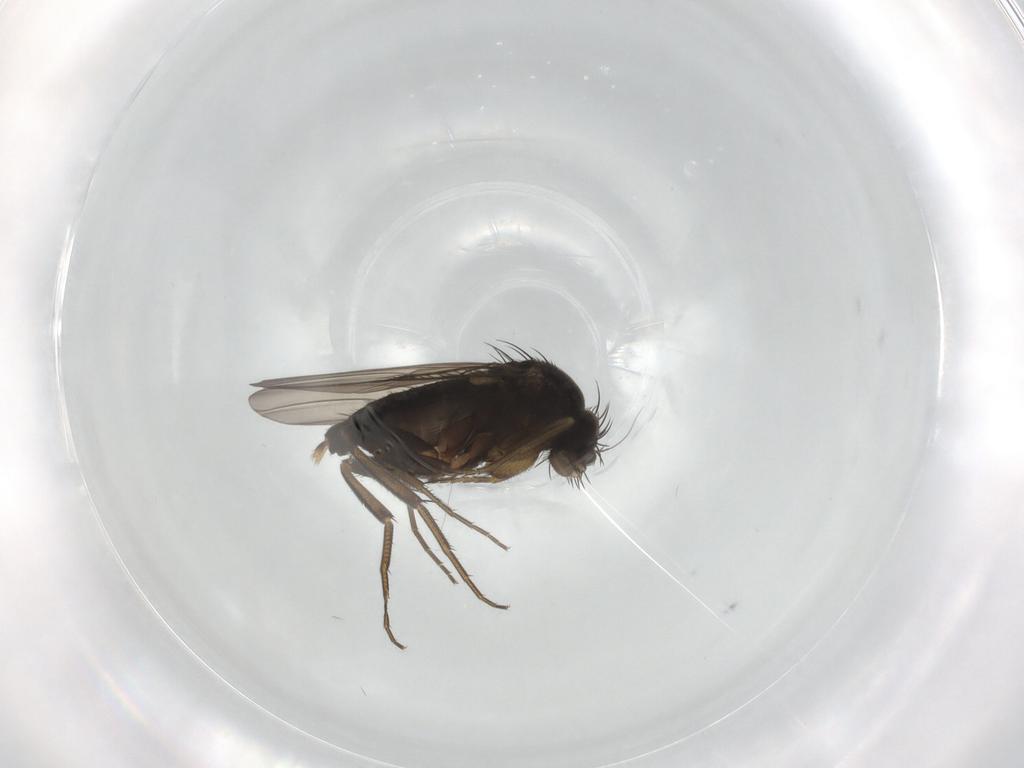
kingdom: Animalia
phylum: Arthropoda
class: Insecta
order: Diptera
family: Phoridae
